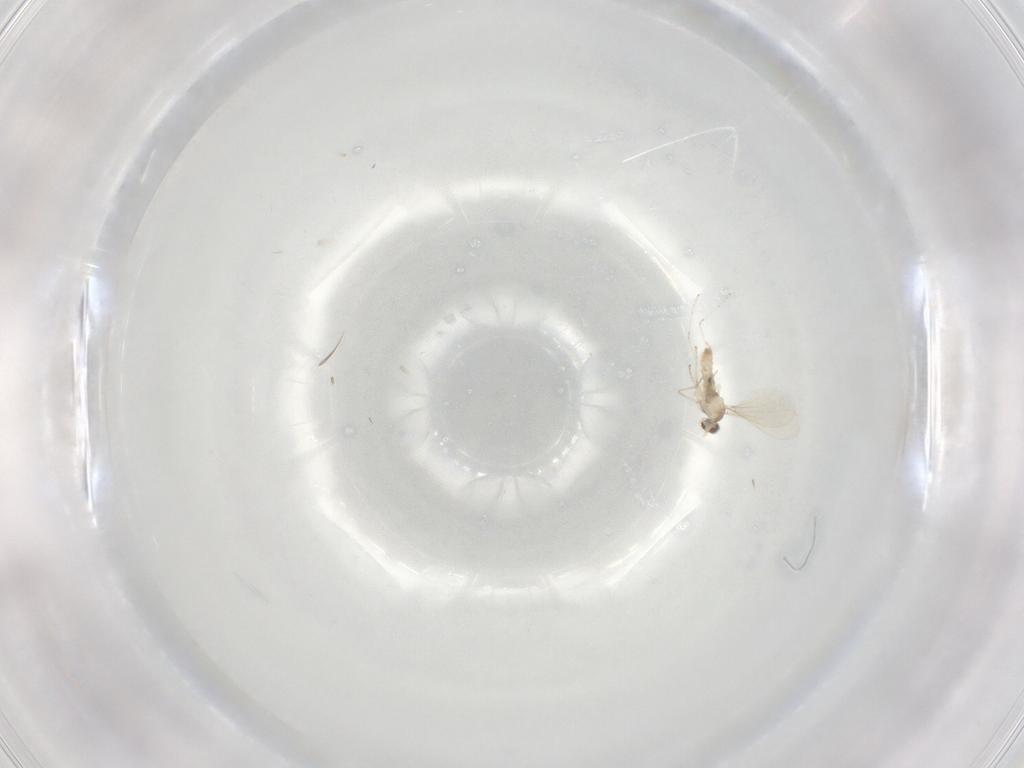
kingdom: Animalia
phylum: Arthropoda
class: Insecta
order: Diptera
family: Cecidomyiidae
